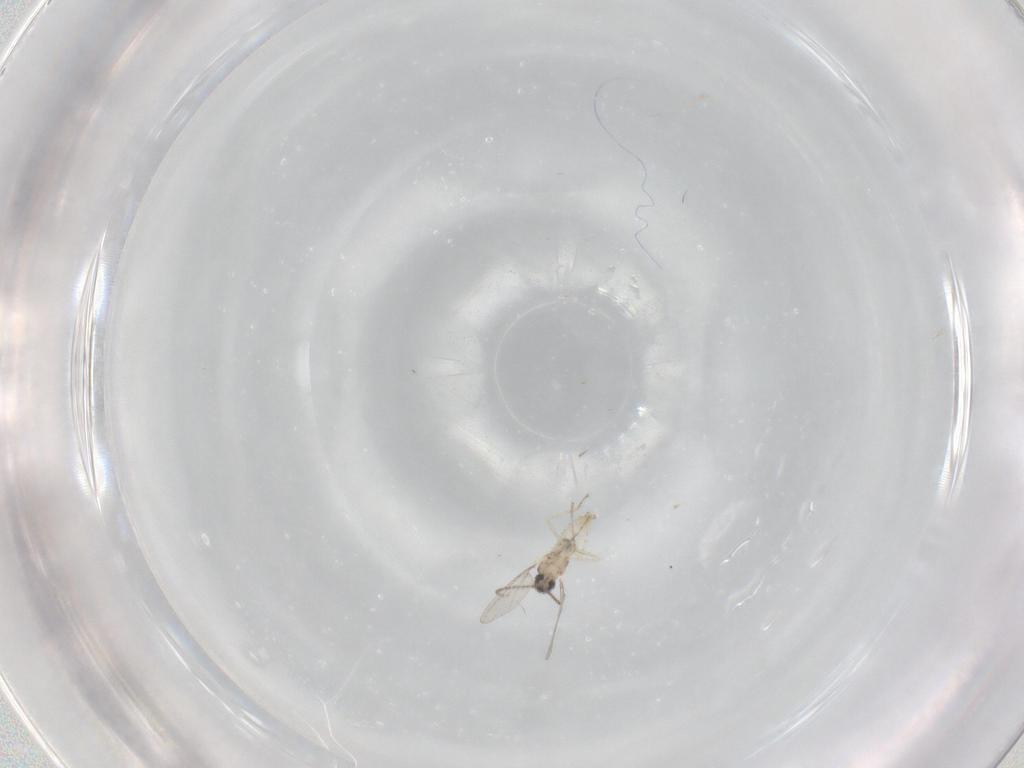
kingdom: Animalia
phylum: Arthropoda
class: Insecta
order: Diptera
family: Cecidomyiidae
